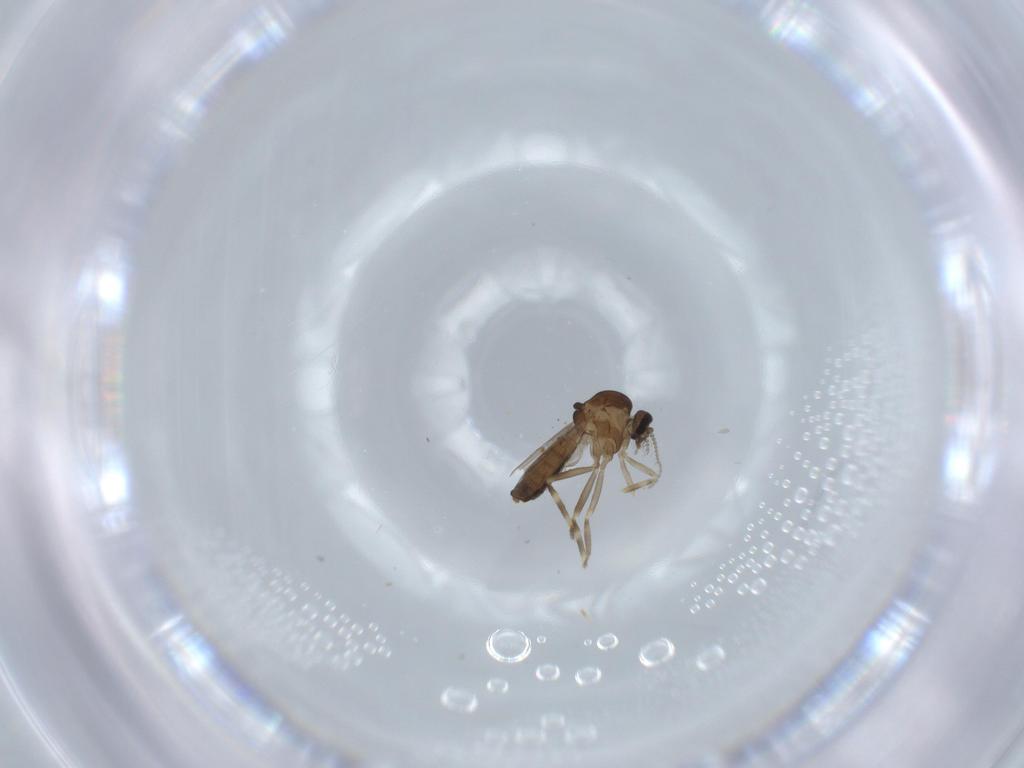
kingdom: Animalia
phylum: Arthropoda
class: Insecta
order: Diptera
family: Ceratopogonidae
